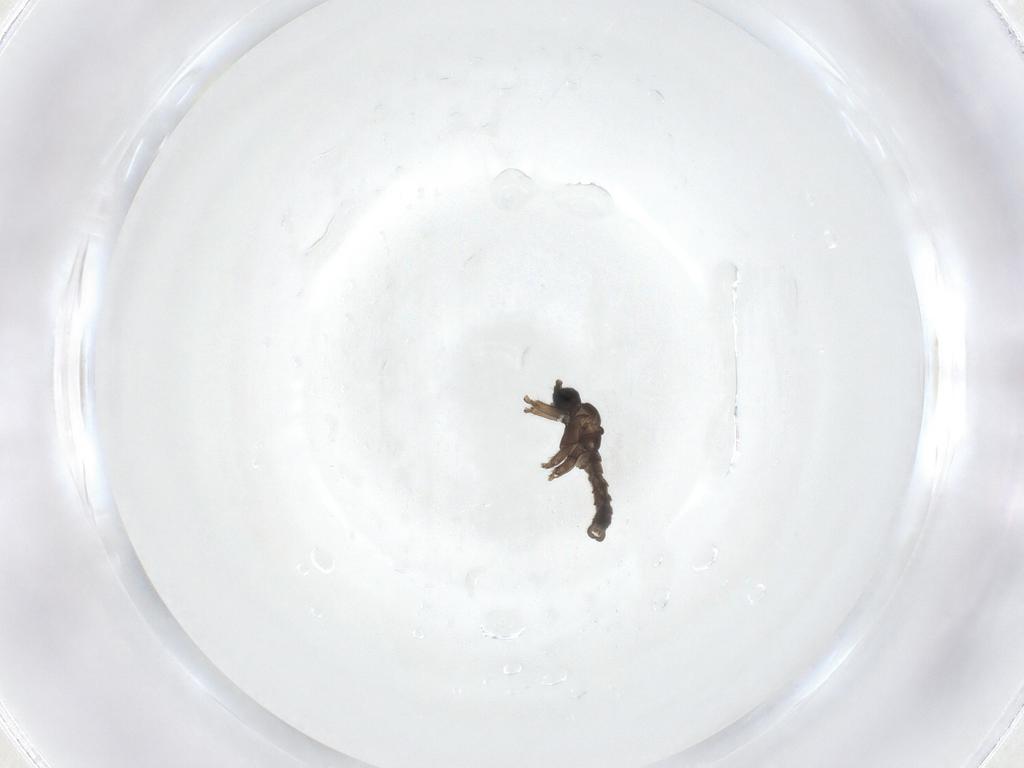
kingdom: Animalia
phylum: Arthropoda
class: Insecta
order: Diptera
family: Sciaridae
